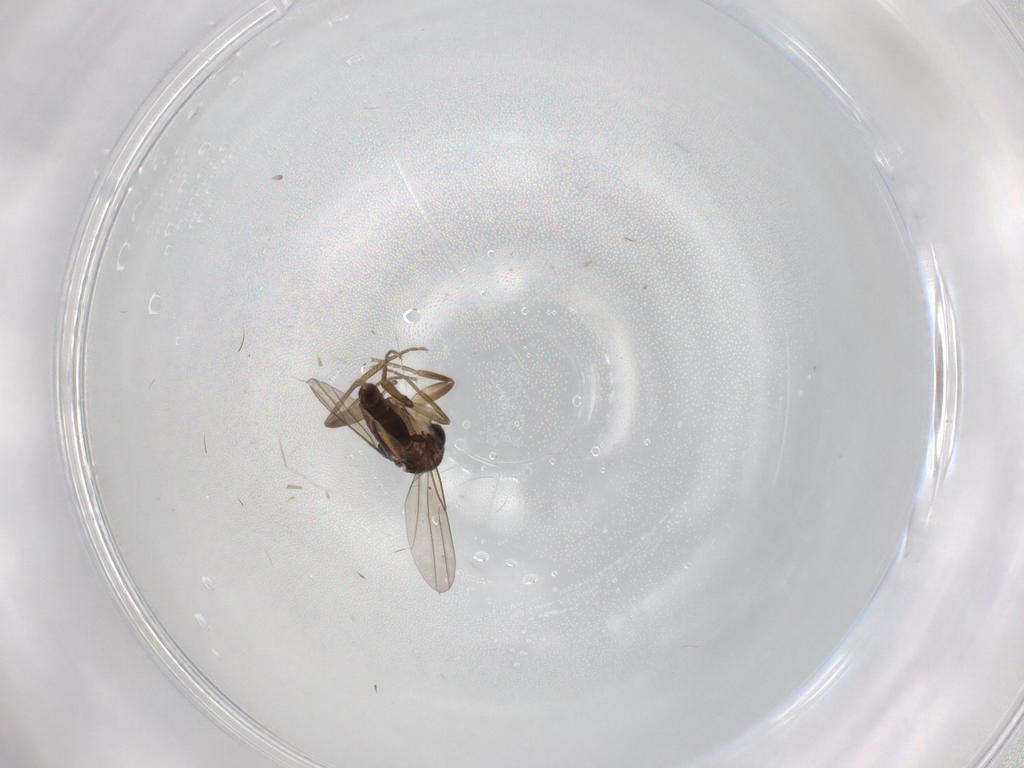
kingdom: Animalia
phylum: Arthropoda
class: Insecta
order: Diptera
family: Phoridae
